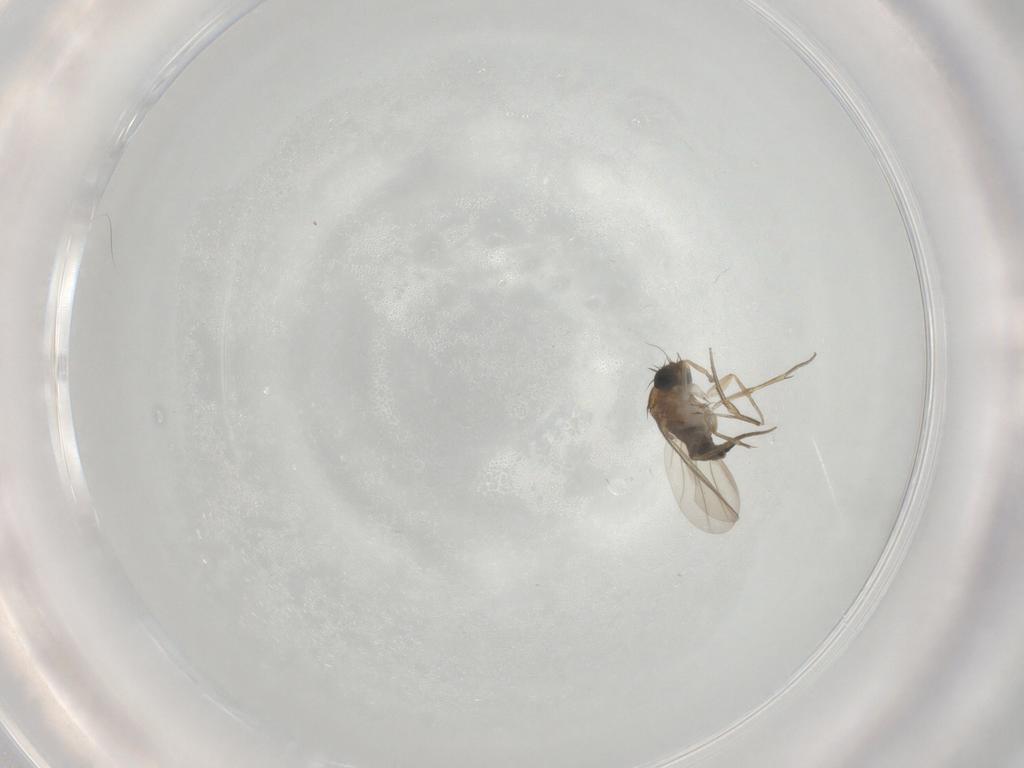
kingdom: Animalia
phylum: Arthropoda
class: Insecta
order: Diptera
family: Phoridae
